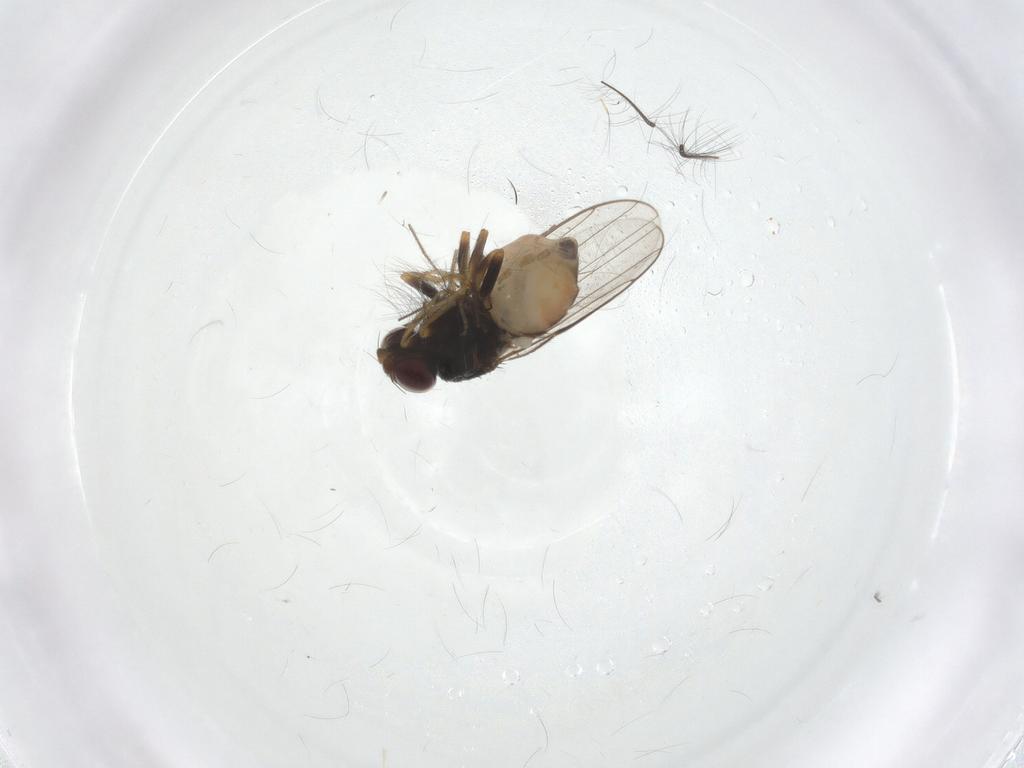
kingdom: Animalia
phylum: Arthropoda
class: Insecta
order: Diptera
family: Chloropidae
